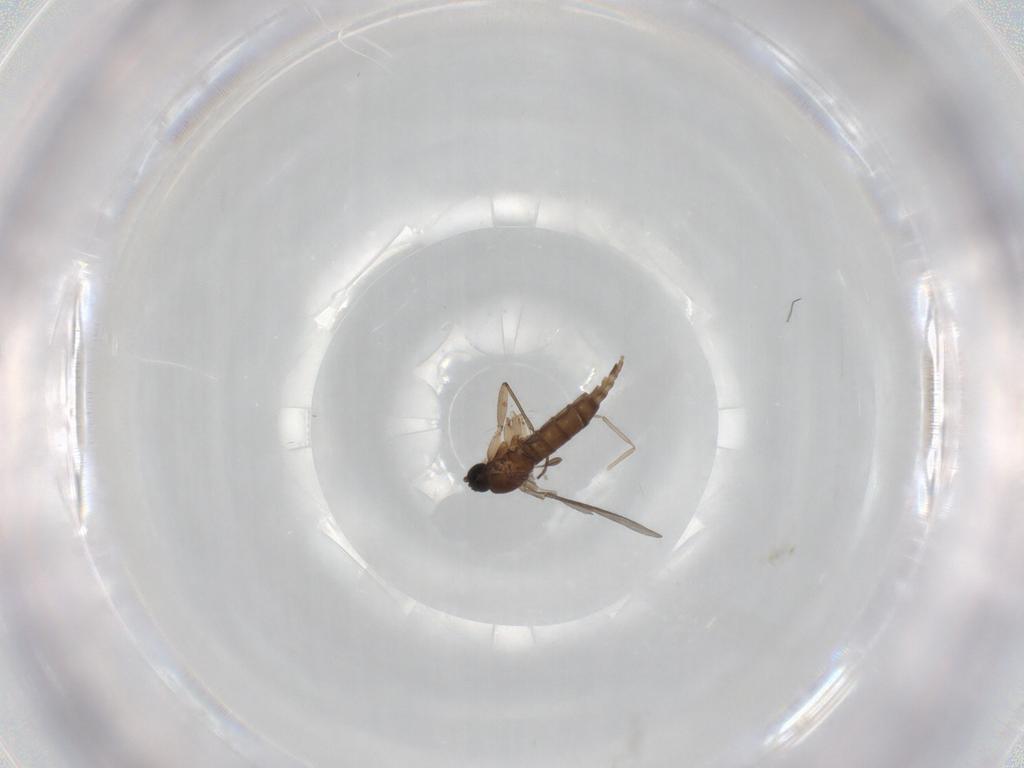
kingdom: Animalia
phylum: Arthropoda
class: Insecta
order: Diptera
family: Sciaridae
